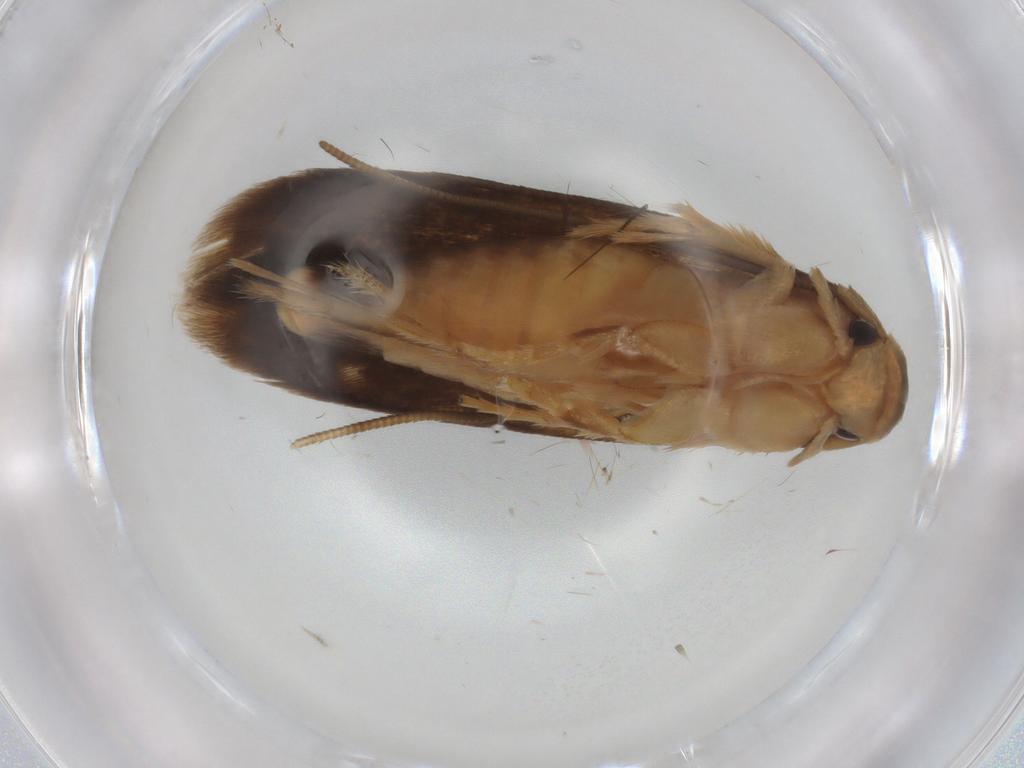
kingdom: Animalia
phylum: Arthropoda
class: Insecta
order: Lepidoptera
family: Tineidae
